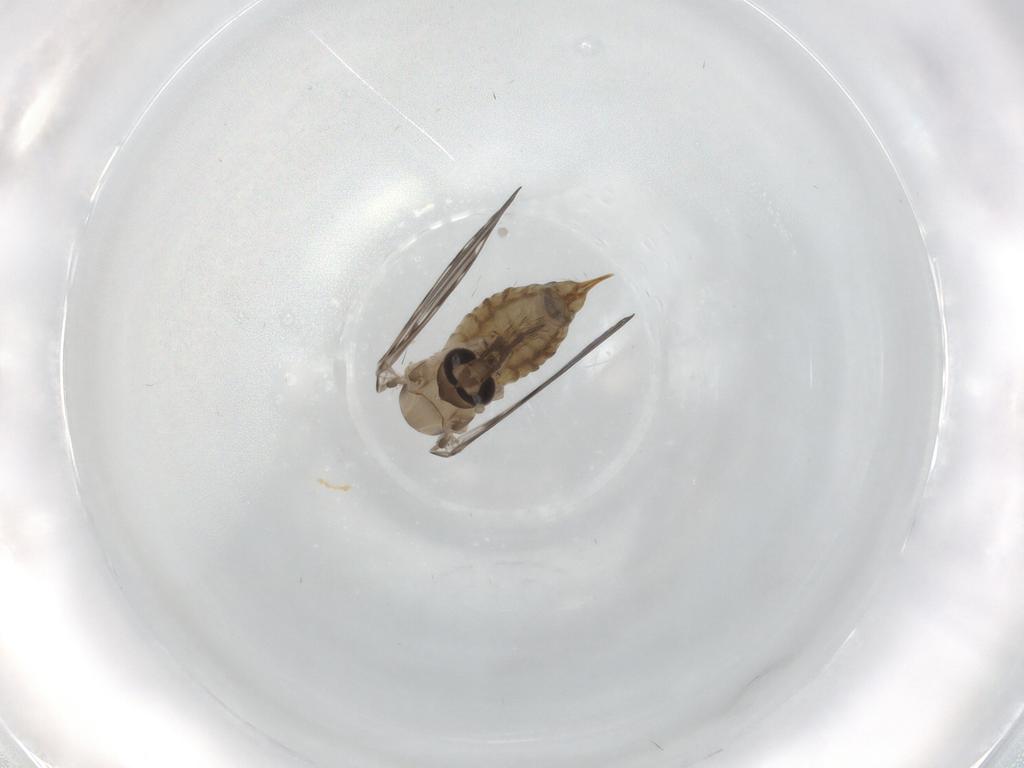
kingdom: Animalia
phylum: Arthropoda
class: Insecta
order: Diptera
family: Psychodidae
